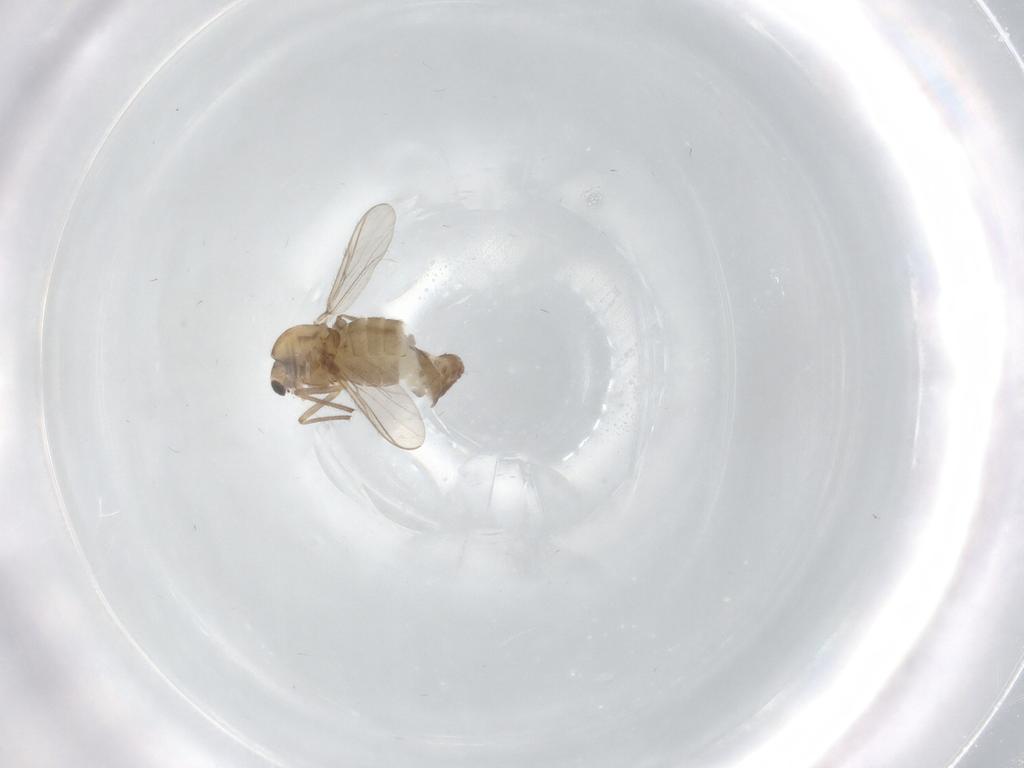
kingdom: Animalia
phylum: Arthropoda
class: Insecta
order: Diptera
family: Chironomidae
